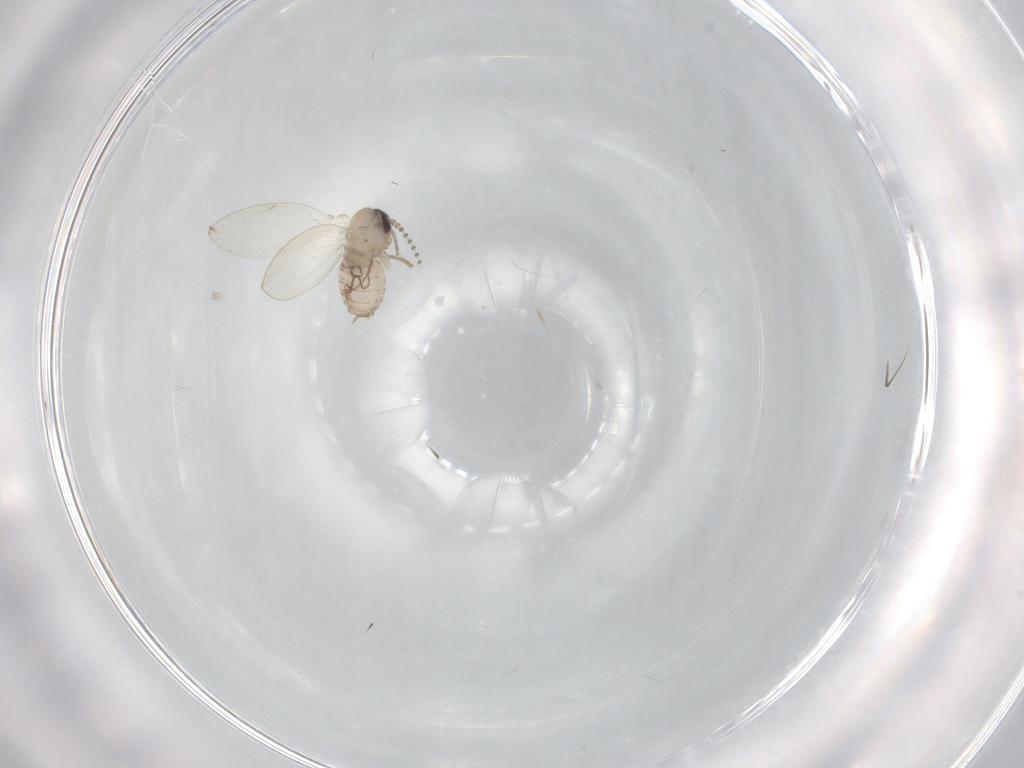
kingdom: Animalia
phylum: Arthropoda
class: Insecta
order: Diptera
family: Psychodidae
